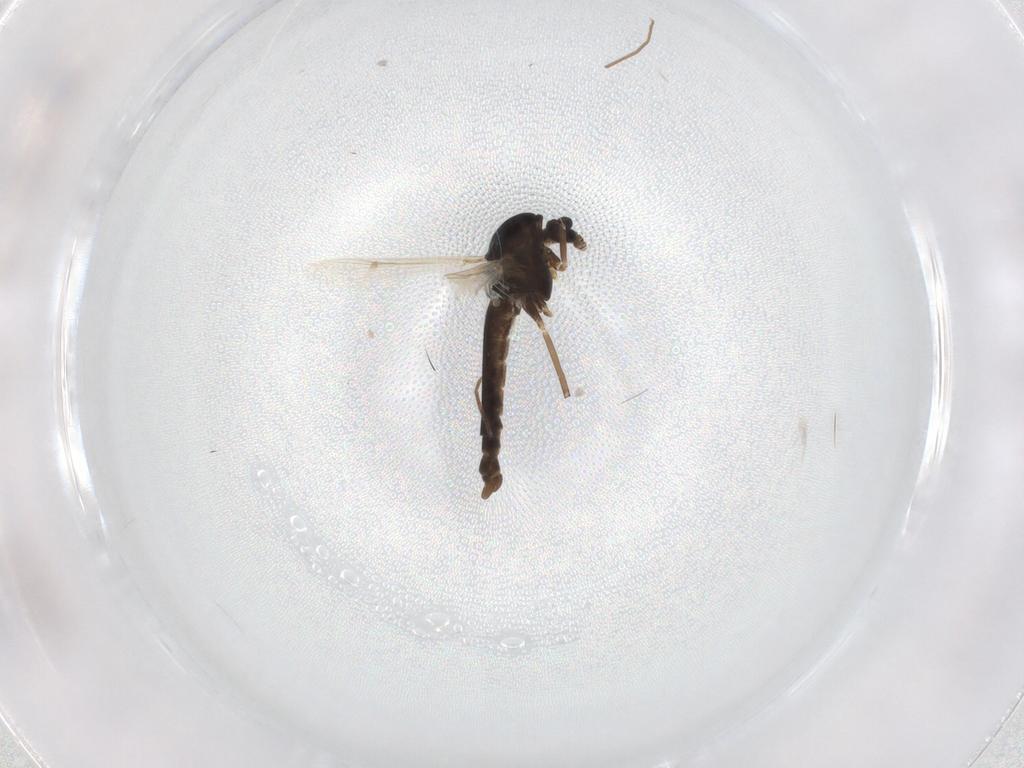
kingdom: Animalia
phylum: Arthropoda
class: Insecta
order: Diptera
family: Chironomidae
